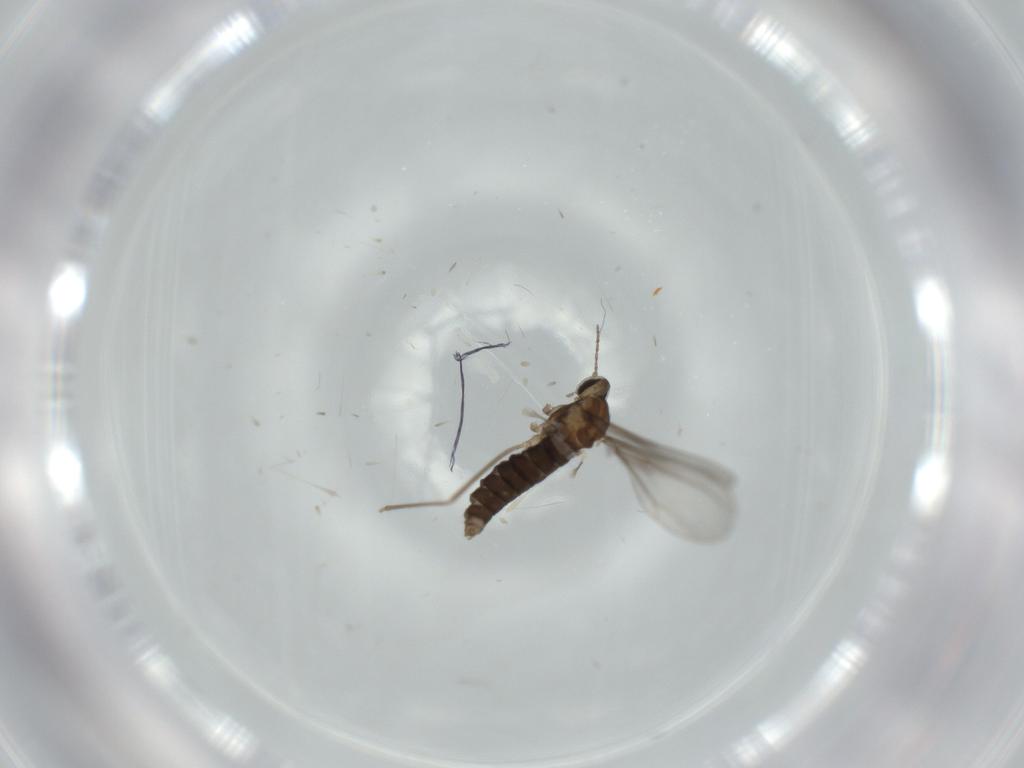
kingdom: Animalia
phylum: Arthropoda
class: Insecta
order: Diptera
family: Cecidomyiidae
